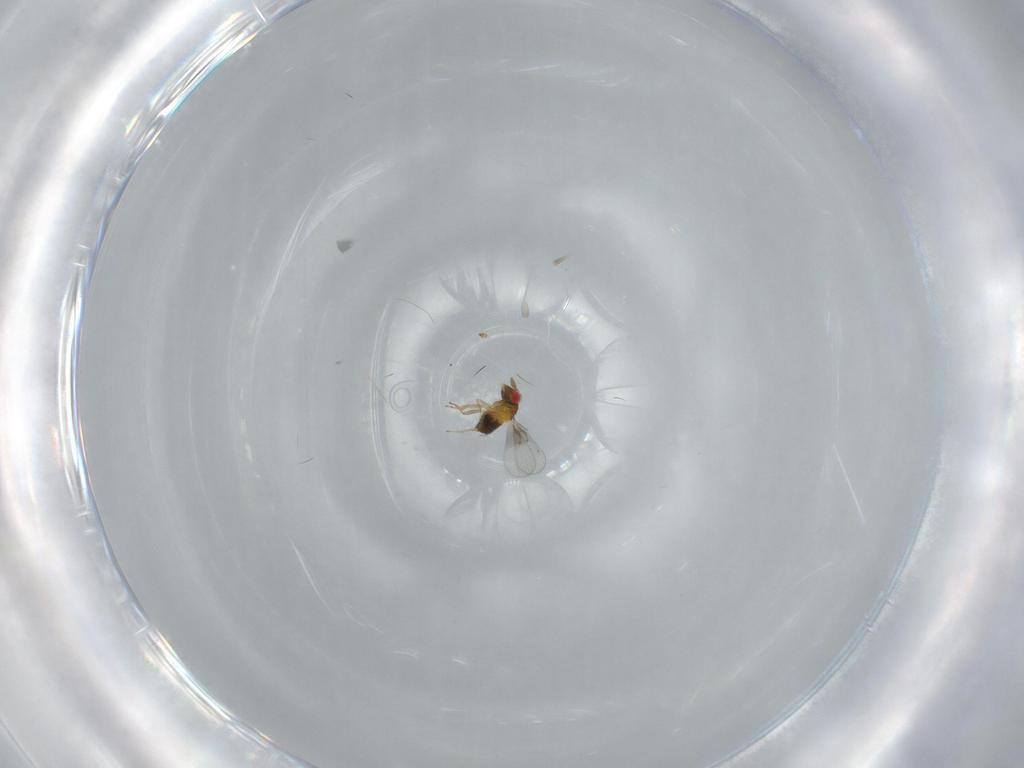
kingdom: Animalia
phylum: Arthropoda
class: Insecta
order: Hymenoptera
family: Trichogrammatidae
